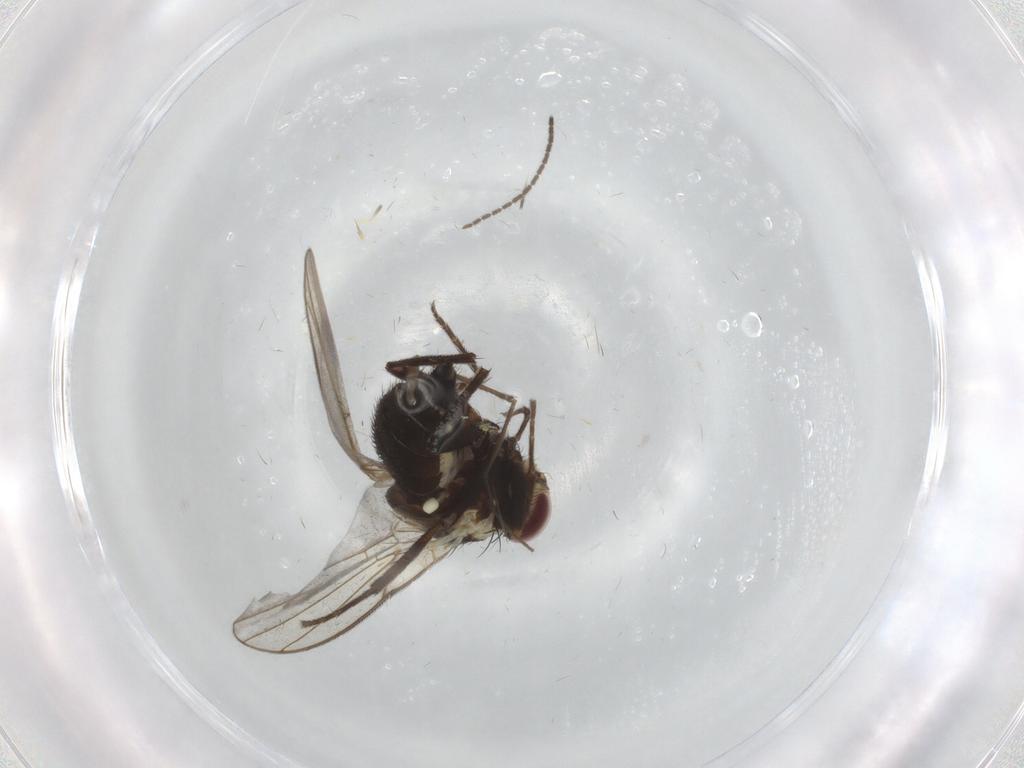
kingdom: Animalia
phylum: Arthropoda
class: Insecta
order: Diptera
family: Agromyzidae
